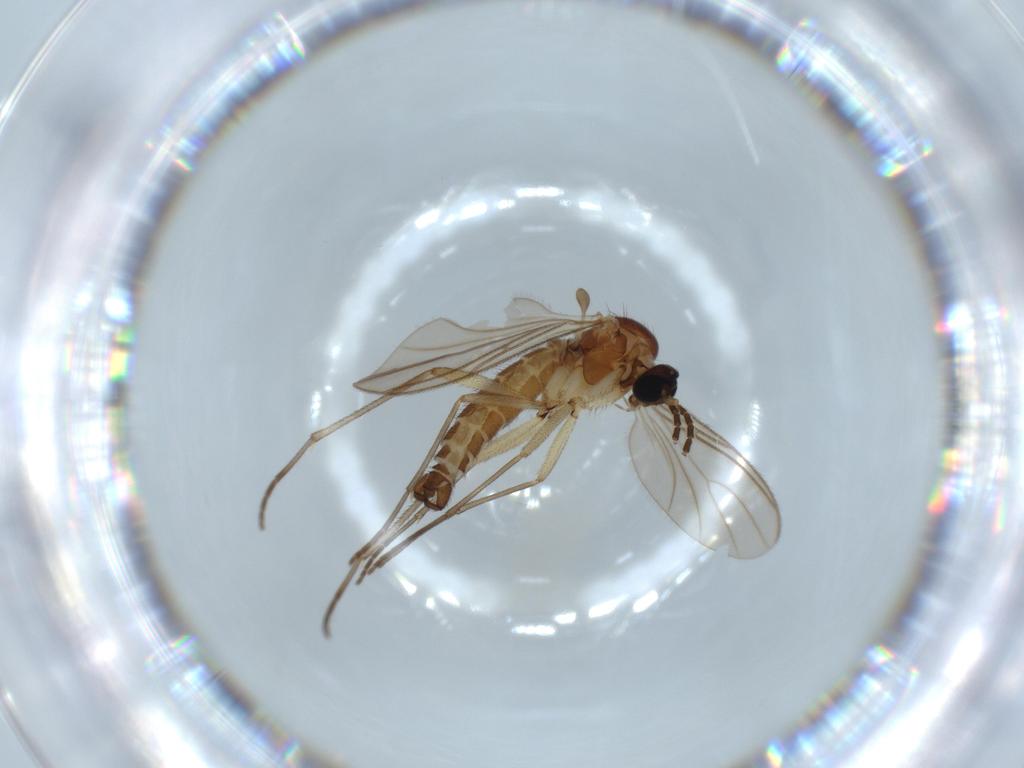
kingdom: Animalia
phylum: Arthropoda
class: Insecta
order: Diptera
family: Sciaridae
